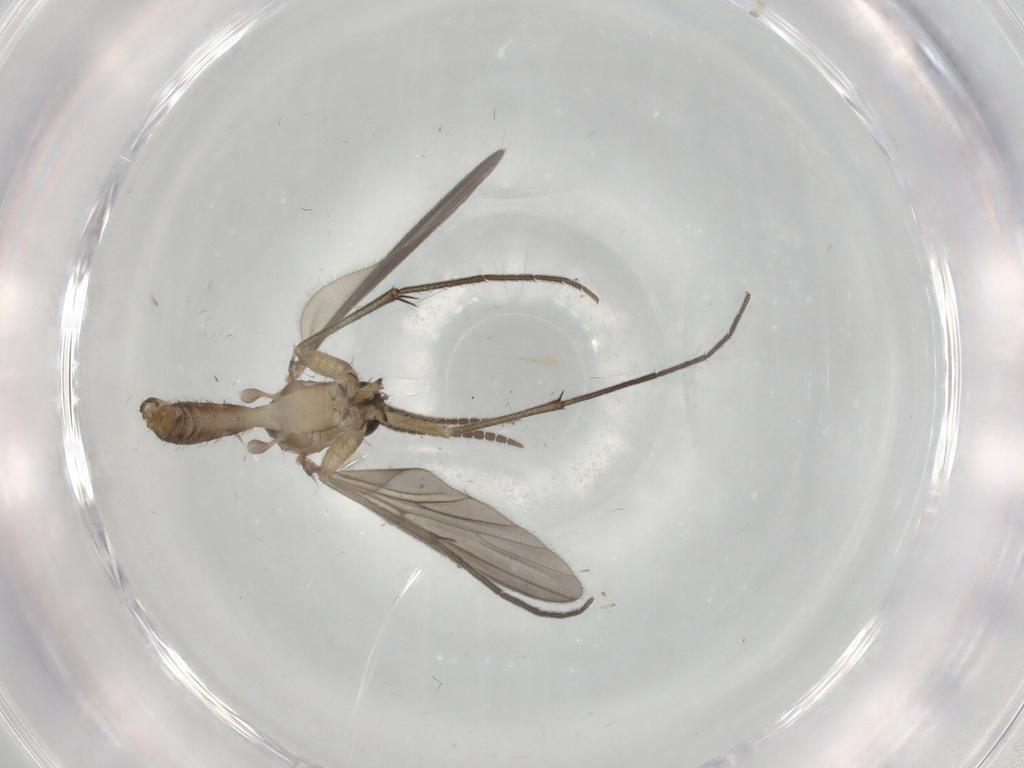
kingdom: Animalia
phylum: Arthropoda
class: Insecta
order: Diptera
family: Mycetophilidae
